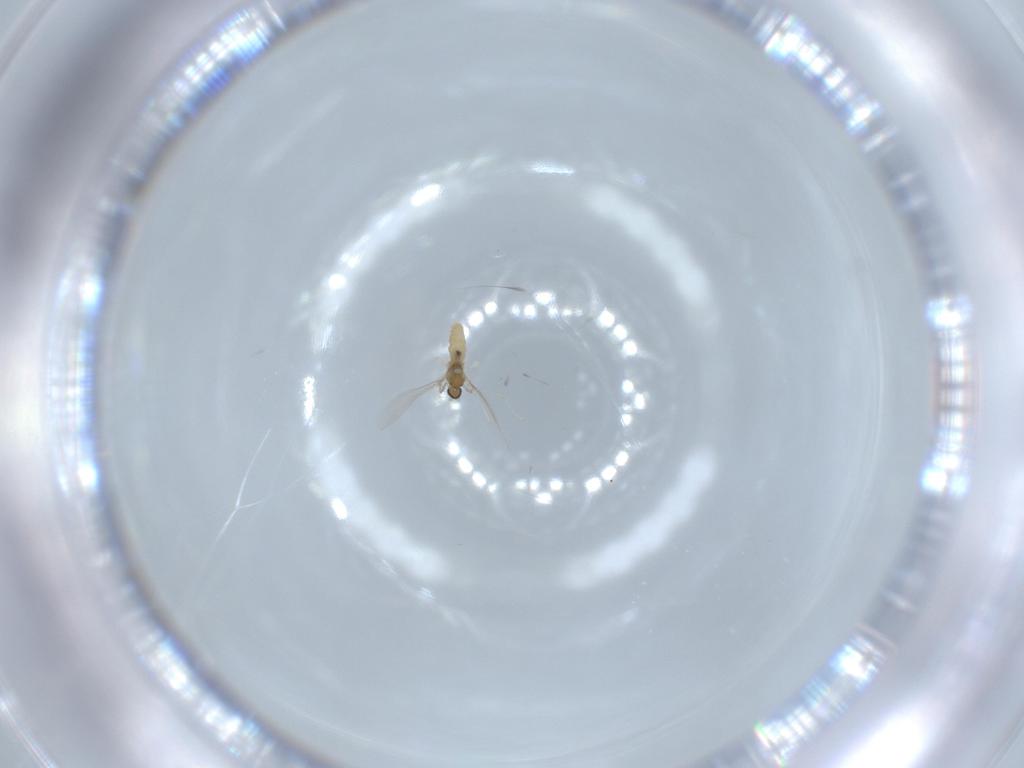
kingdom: Animalia
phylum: Arthropoda
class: Insecta
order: Diptera
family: Cecidomyiidae
